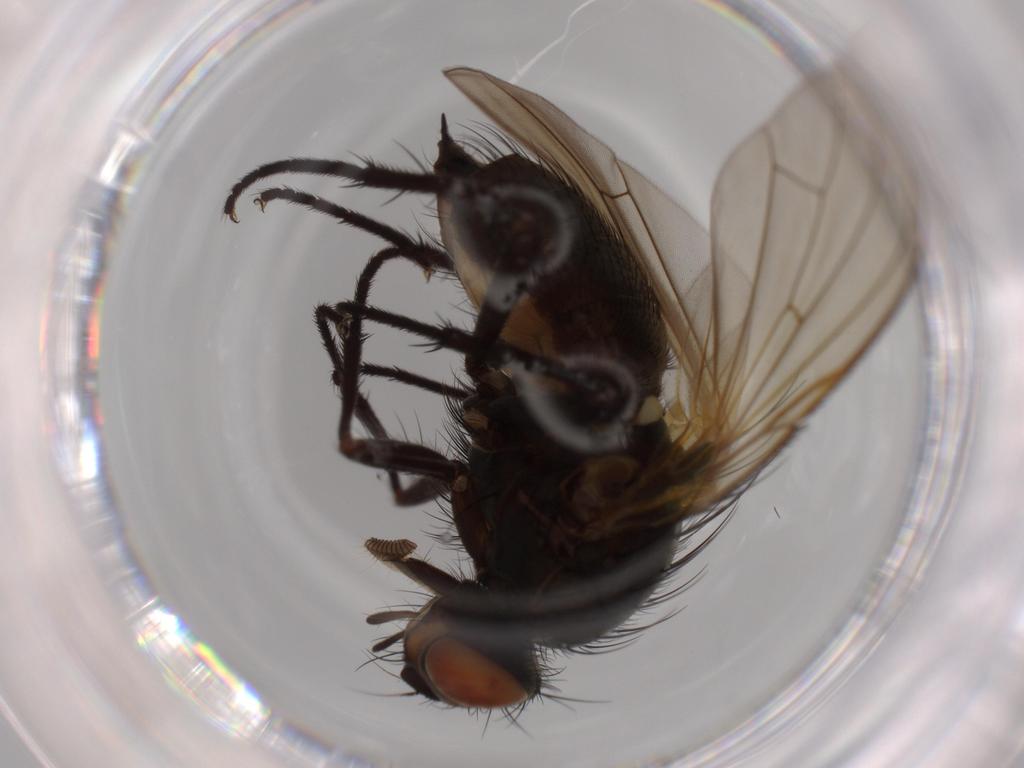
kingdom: Animalia
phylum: Arthropoda
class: Insecta
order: Diptera
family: Anthomyiidae
